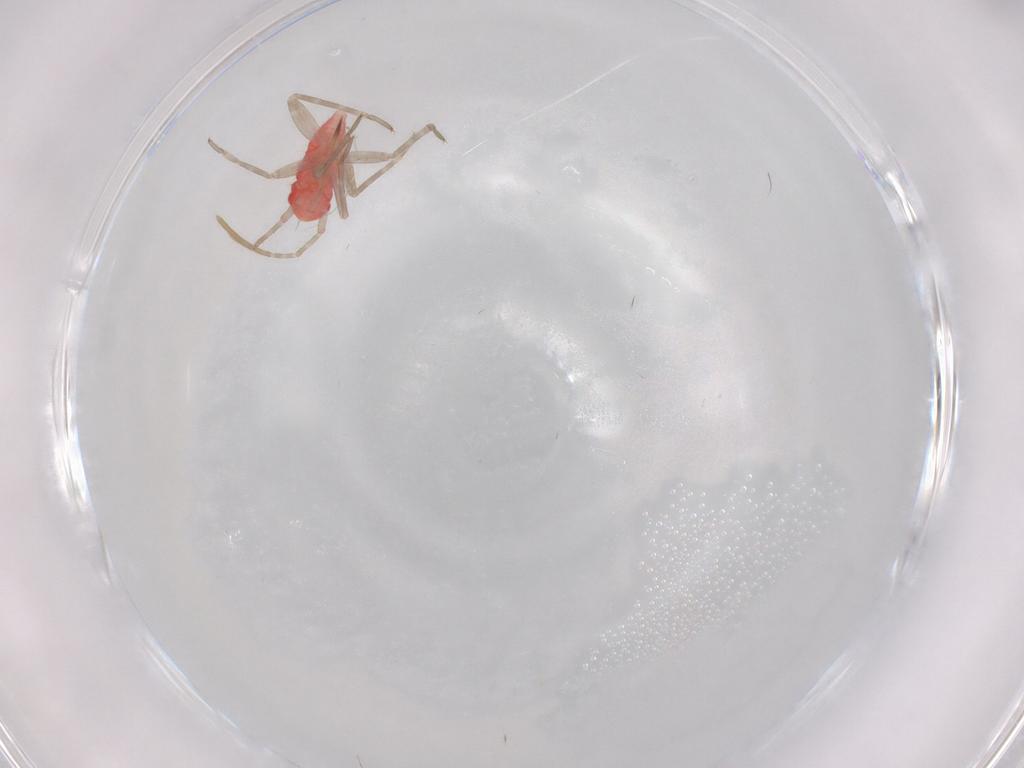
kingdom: Animalia
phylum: Arthropoda
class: Insecta
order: Hemiptera
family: Miridae
